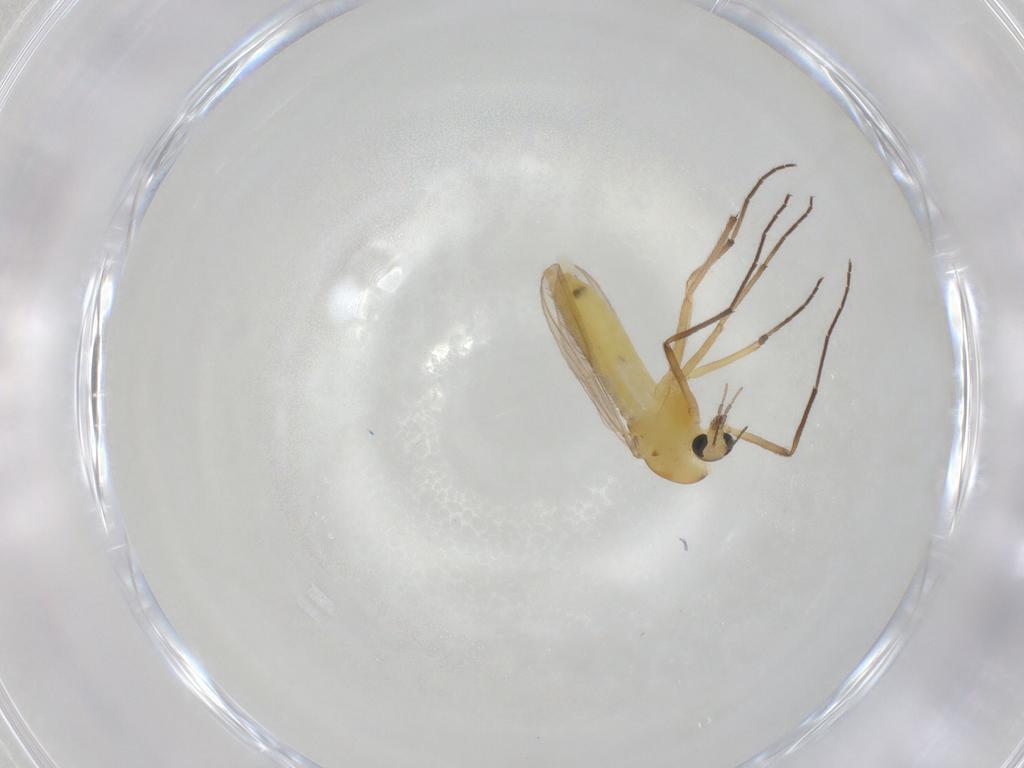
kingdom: Animalia
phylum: Arthropoda
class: Insecta
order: Diptera
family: Chironomidae
